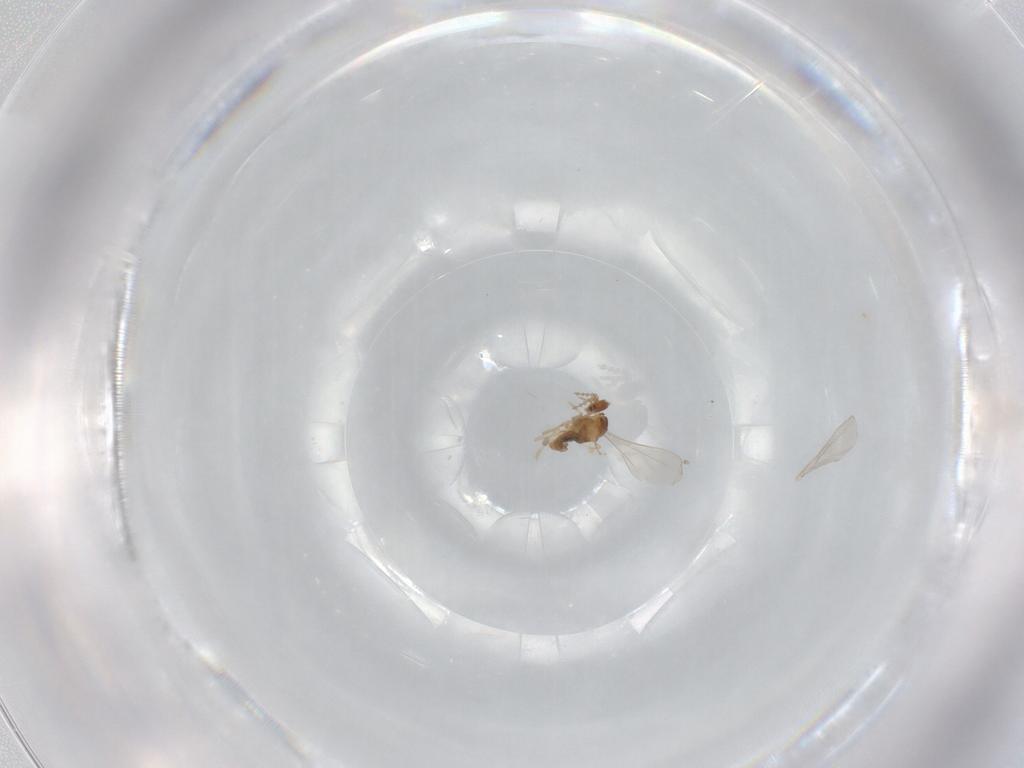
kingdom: Animalia
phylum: Arthropoda
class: Insecta
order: Diptera
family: Cecidomyiidae
